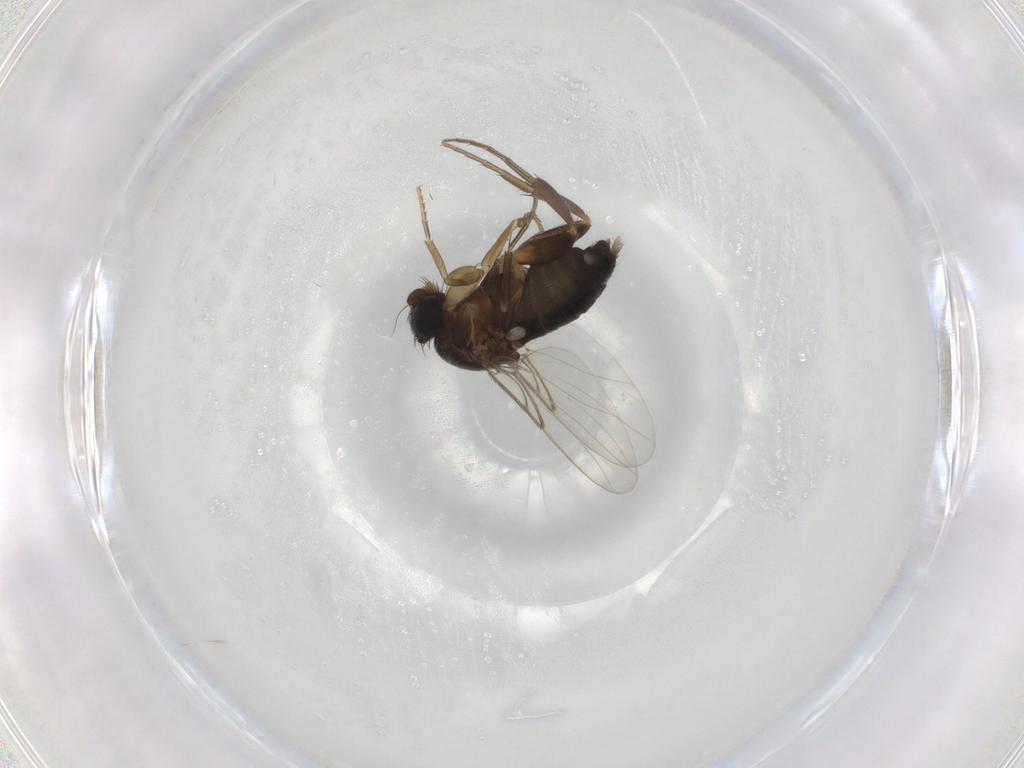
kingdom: Animalia
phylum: Arthropoda
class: Insecta
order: Diptera
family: Phoridae
